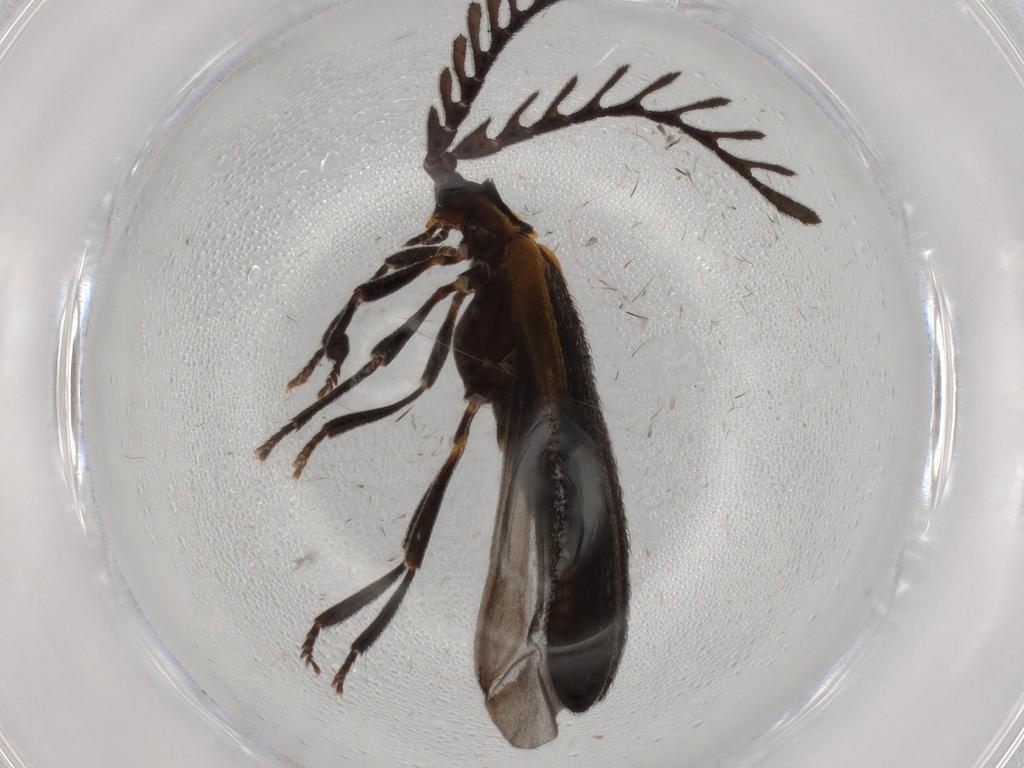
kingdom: Animalia
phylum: Arthropoda
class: Insecta
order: Coleoptera
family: Lycidae
